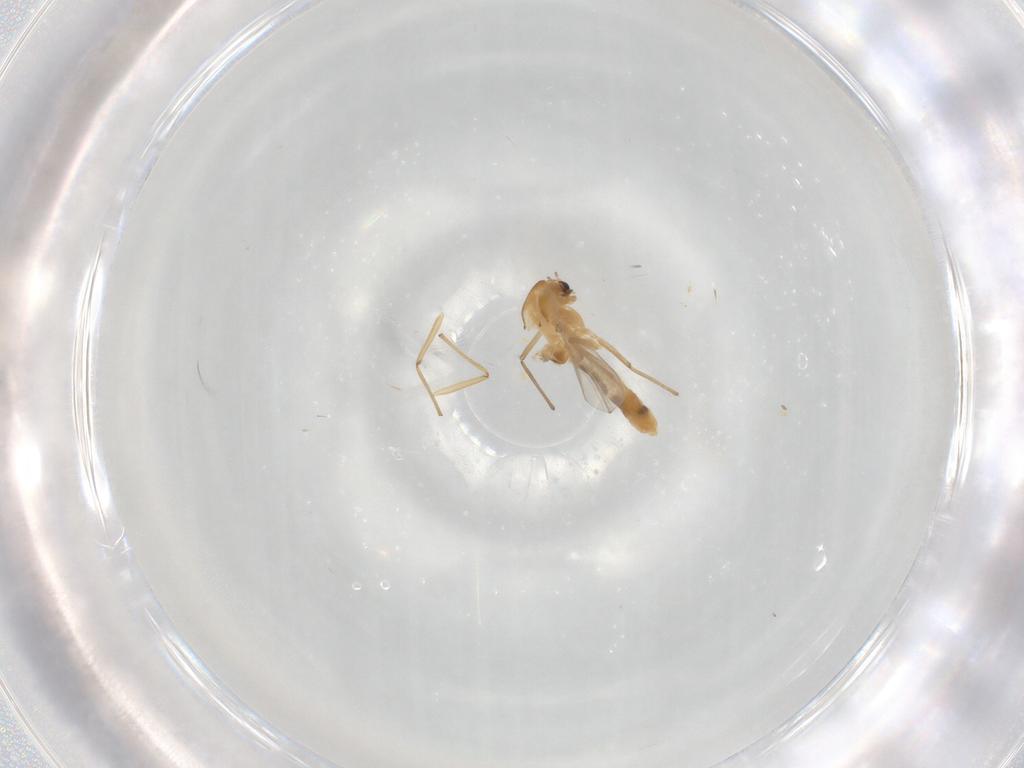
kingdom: Animalia
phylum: Arthropoda
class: Insecta
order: Diptera
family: Chironomidae
